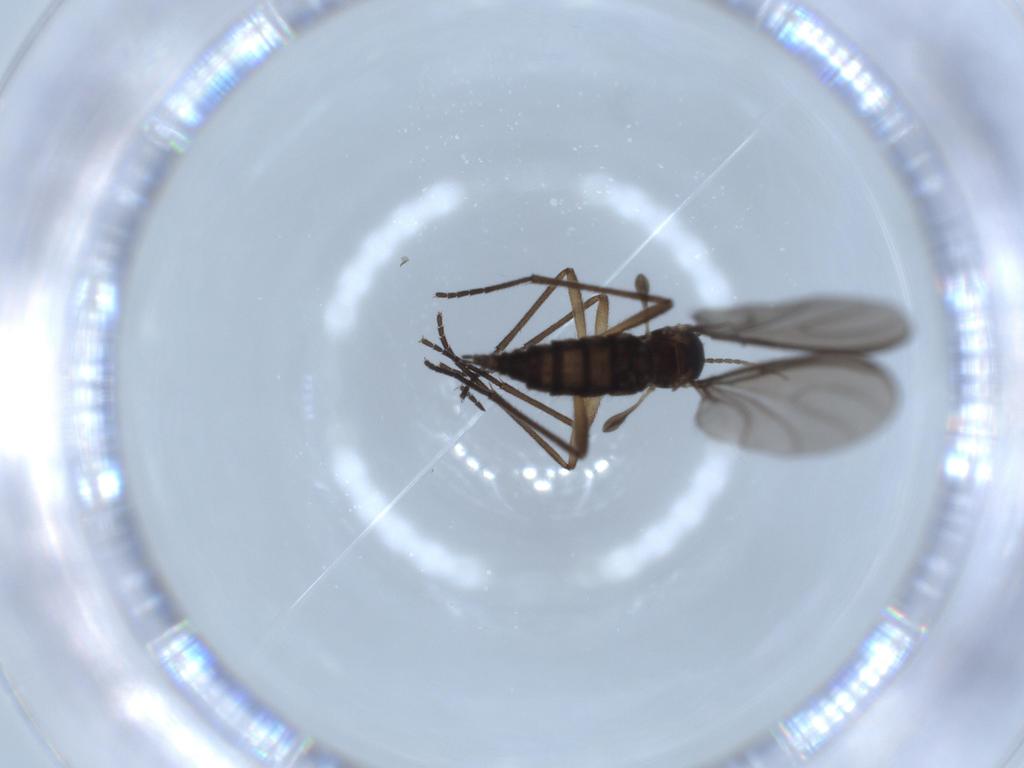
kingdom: Animalia
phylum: Arthropoda
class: Insecta
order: Diptera
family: Sciaridae
